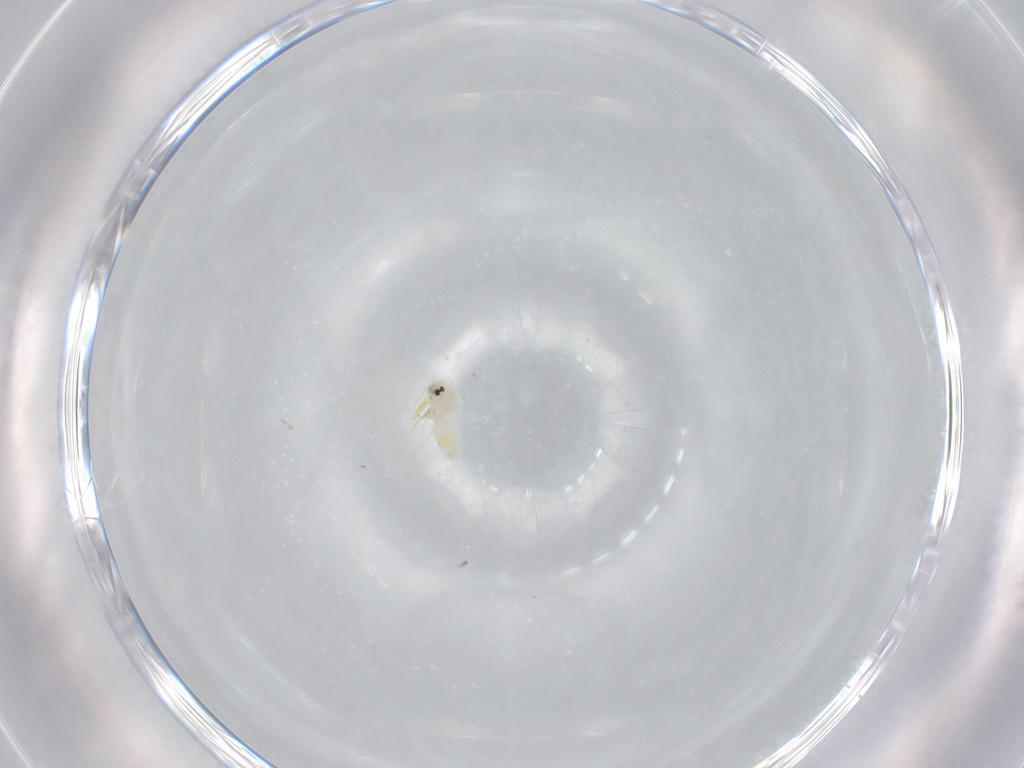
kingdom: Animalia
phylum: Arthropoda
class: Insecta
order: Hemiptera
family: Aleyrodidae
